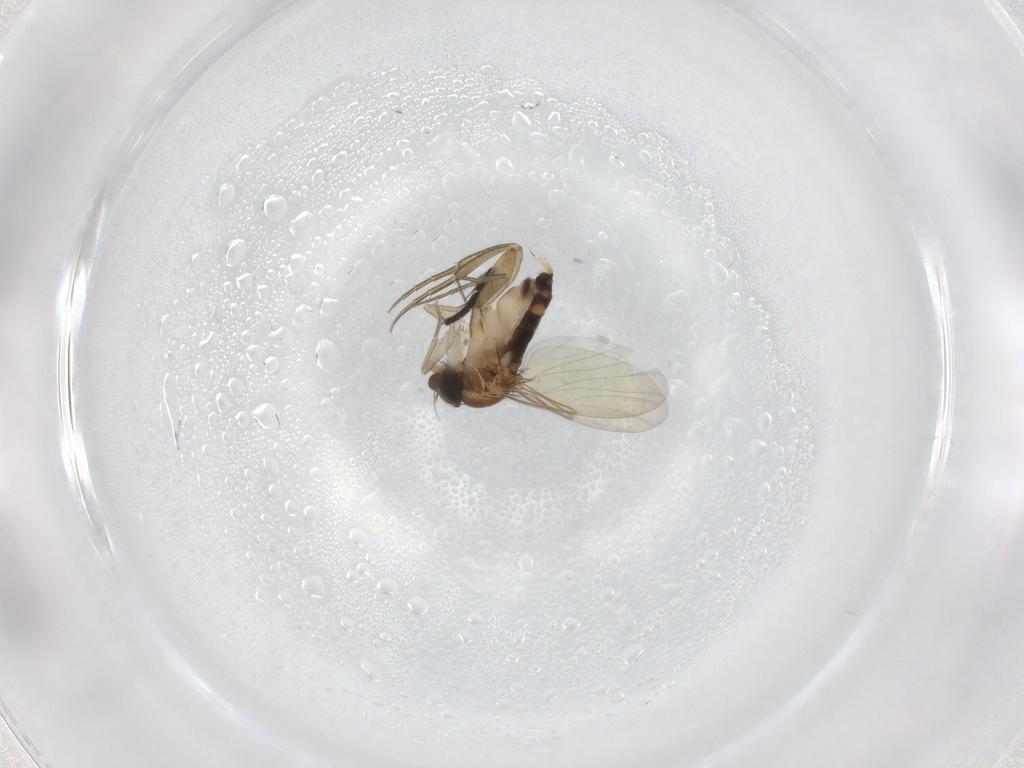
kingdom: Animalia
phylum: Arthropoda
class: Insecta
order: Diptera
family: Phoridae
